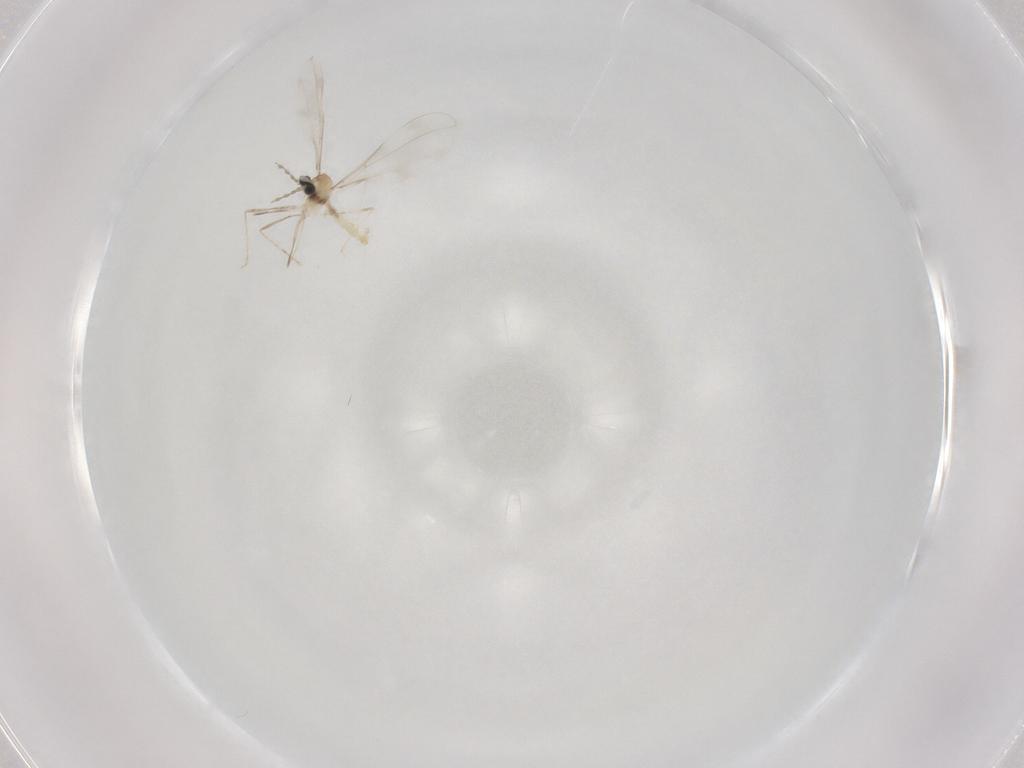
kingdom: Animalia
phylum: Arthropoda
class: Insecta
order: Diptera
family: Cecidomyiidae
